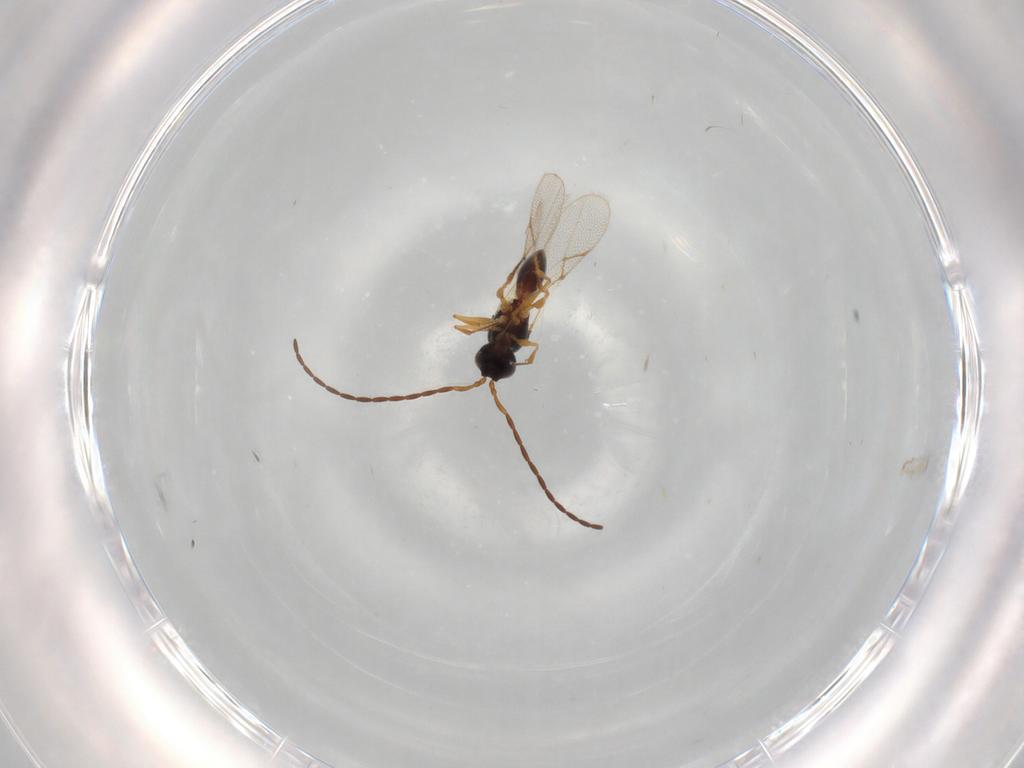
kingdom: Animalia
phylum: Arthropoda
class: Insecta
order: Hymenoptera
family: Figitidae
